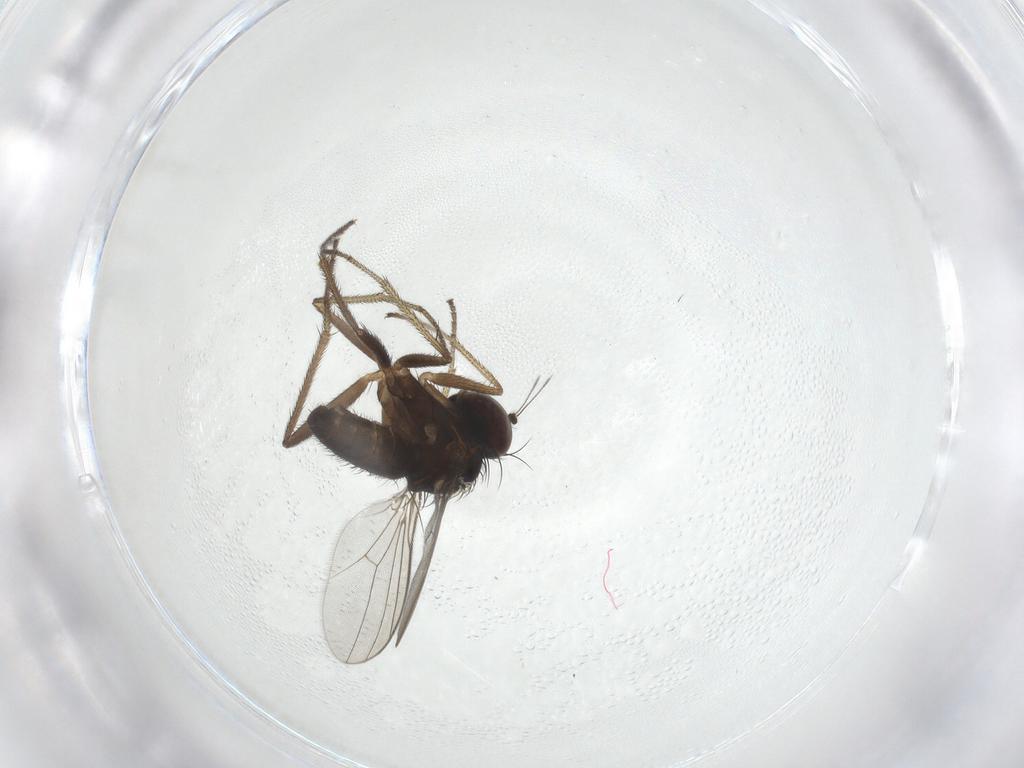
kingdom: Animalia
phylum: Arthropoda
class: Insecta
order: Diptera
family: Dolichopodidae
